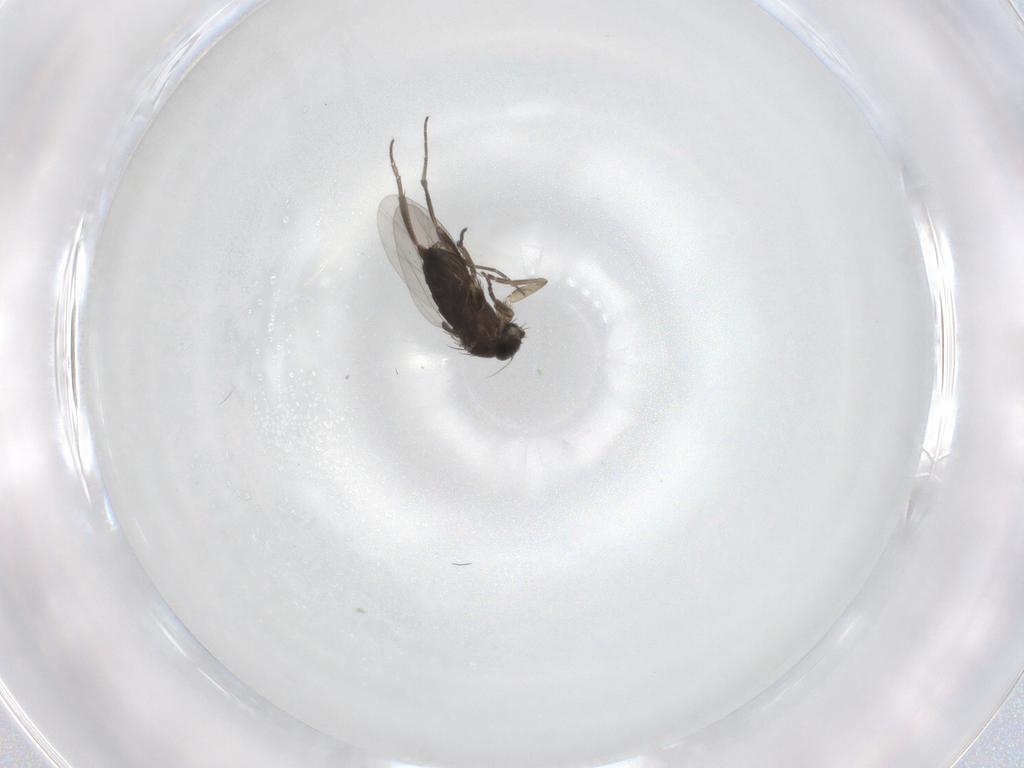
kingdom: Animalia
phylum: Arthropoda
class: Insecta
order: Diptera
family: Phoridae
